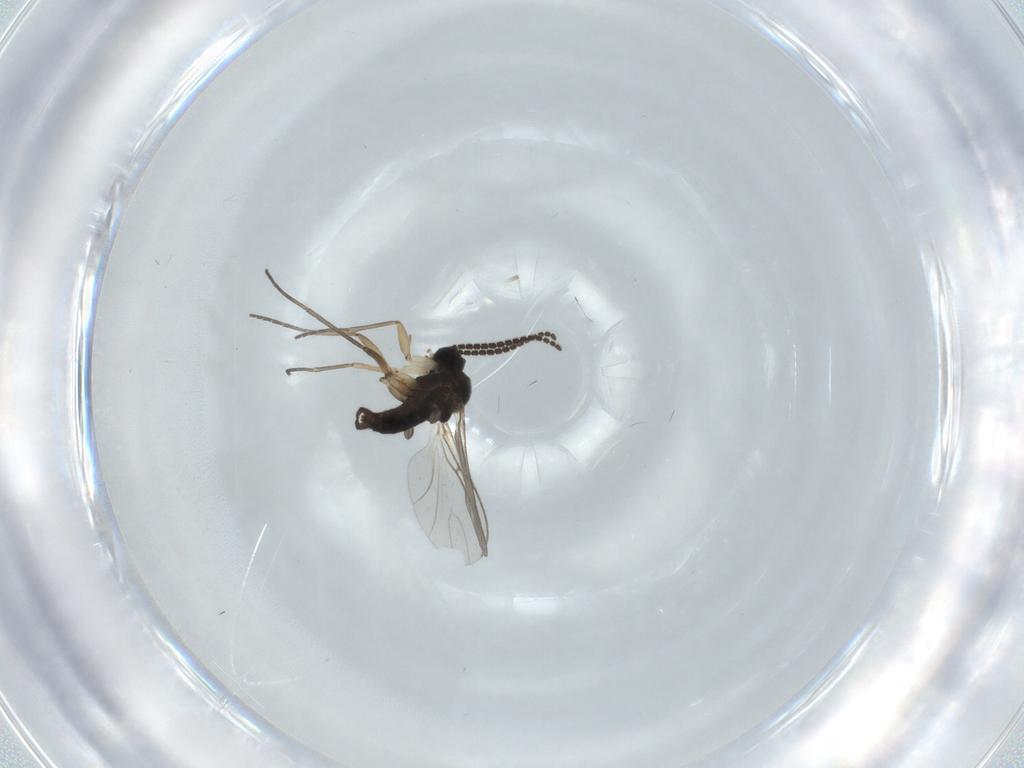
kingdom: Animalia
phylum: Arthropoda
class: Insecta
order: Diptera
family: Sciaridae
